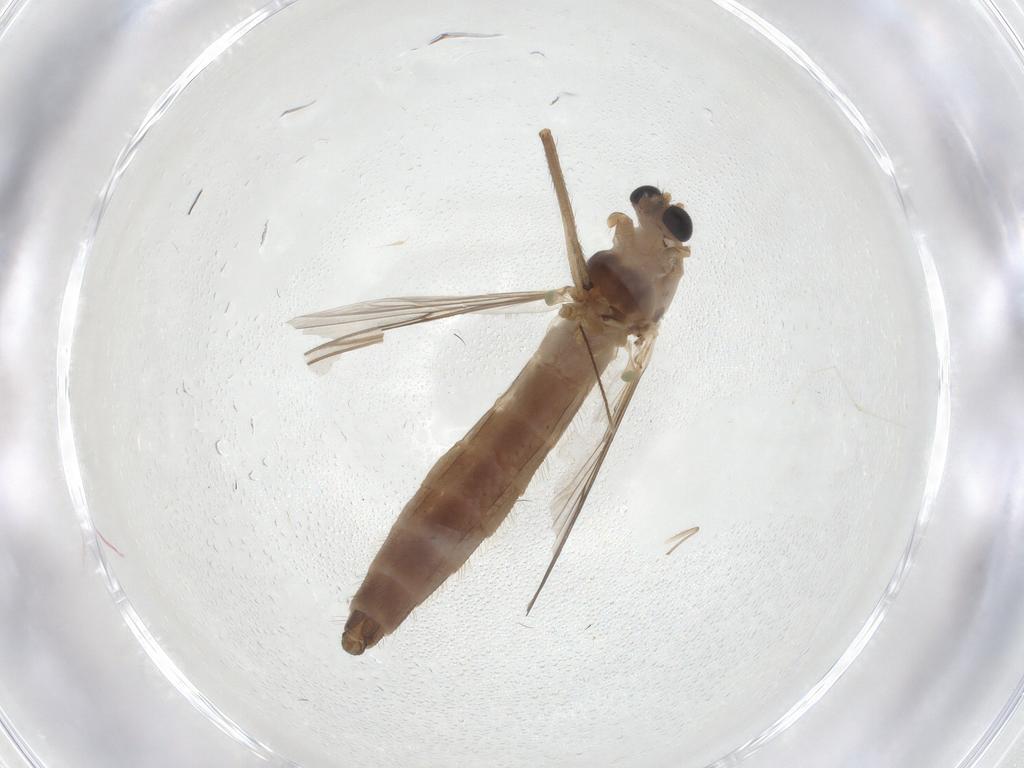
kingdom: Animalia
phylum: Arthropoda
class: Insecta
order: Diptera
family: Chironomidae
